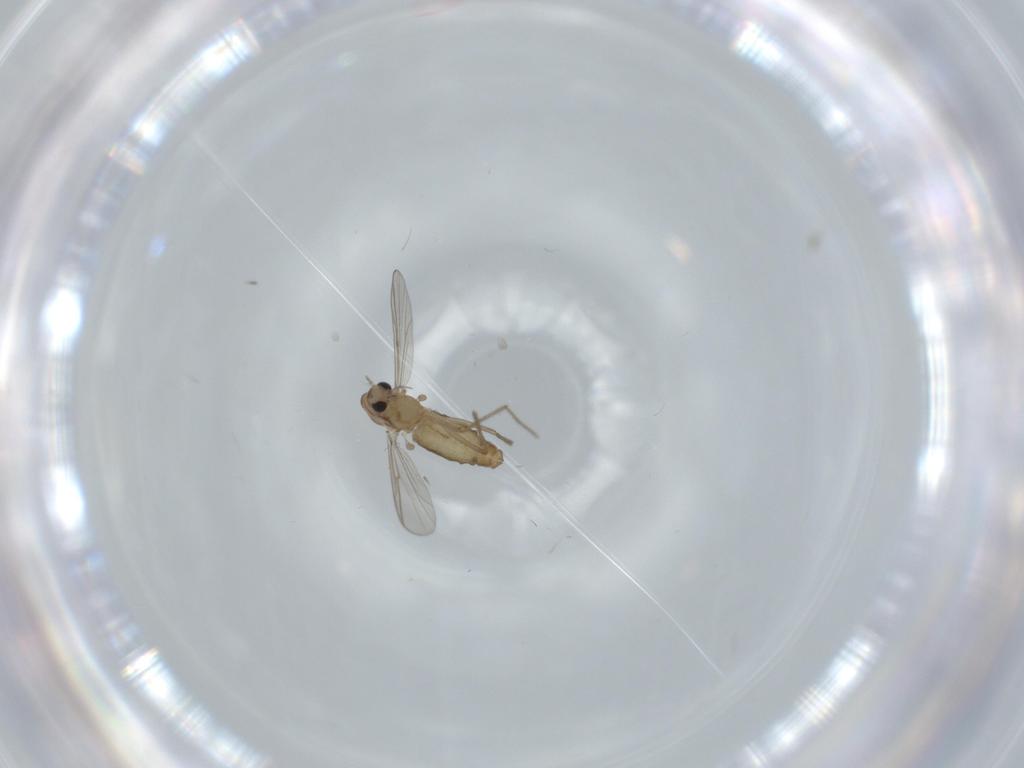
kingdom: Animalia
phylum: Arthropoda
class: Insecta
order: Diptera
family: Chironomidae
